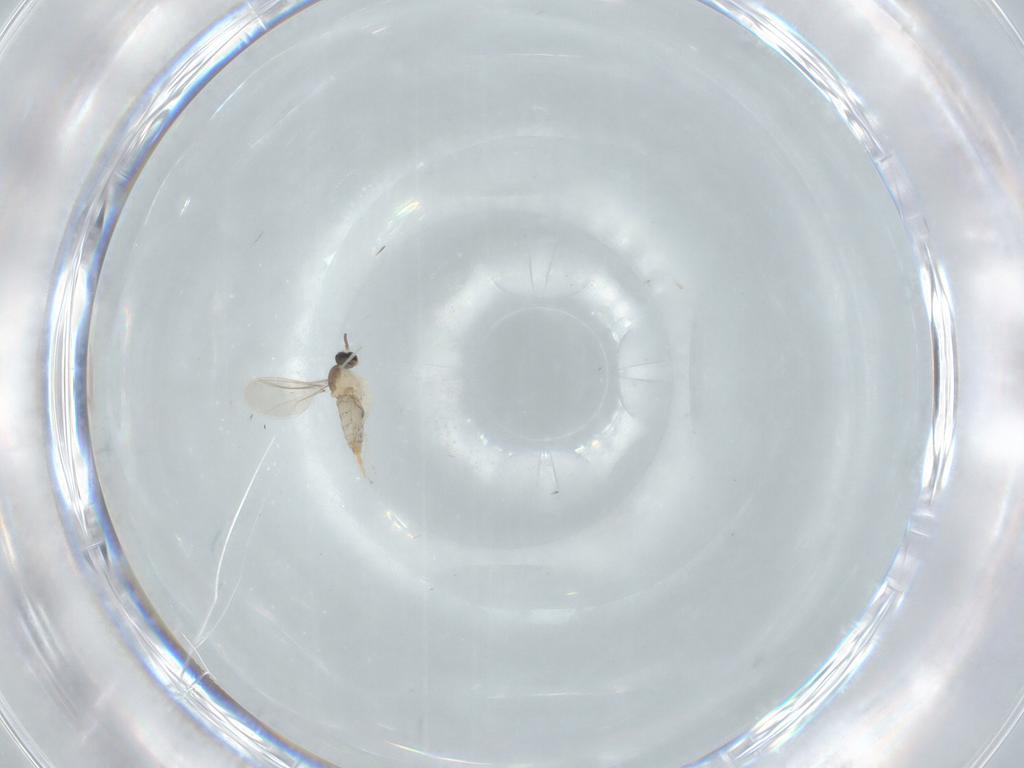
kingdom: Animalia
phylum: Arthropoda
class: Insecta
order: Diptera
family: Cecidomyiidae
